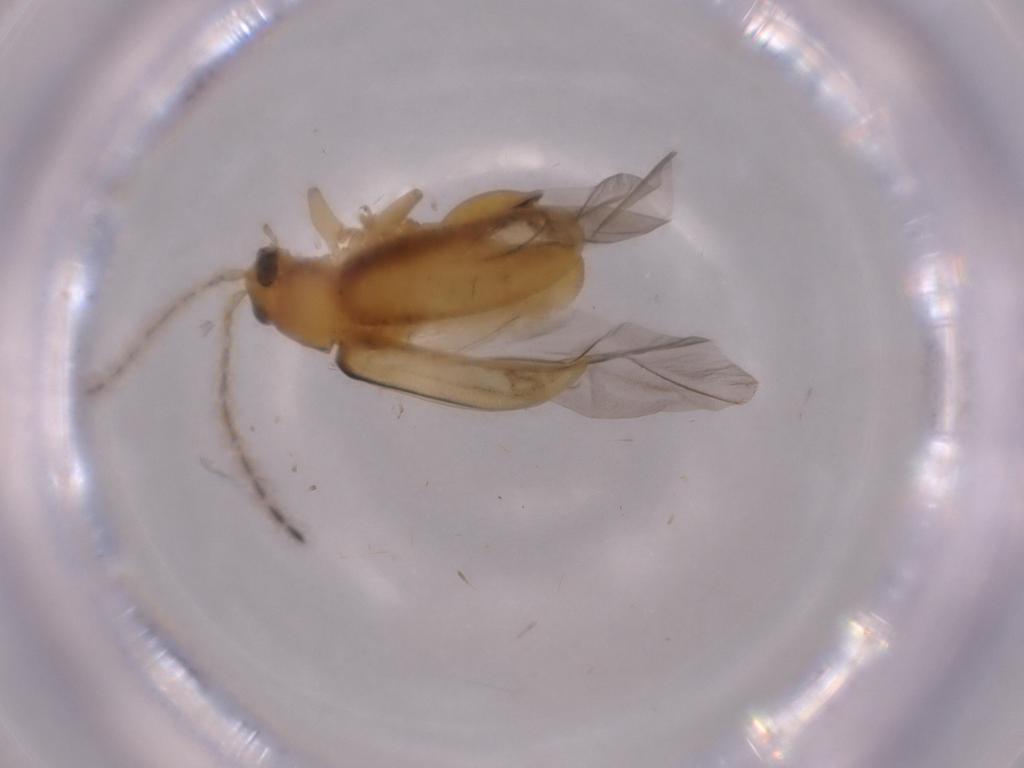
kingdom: Animalia
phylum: Arthropoda
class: Insecta
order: Coleoptera
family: Chrysomelidae
